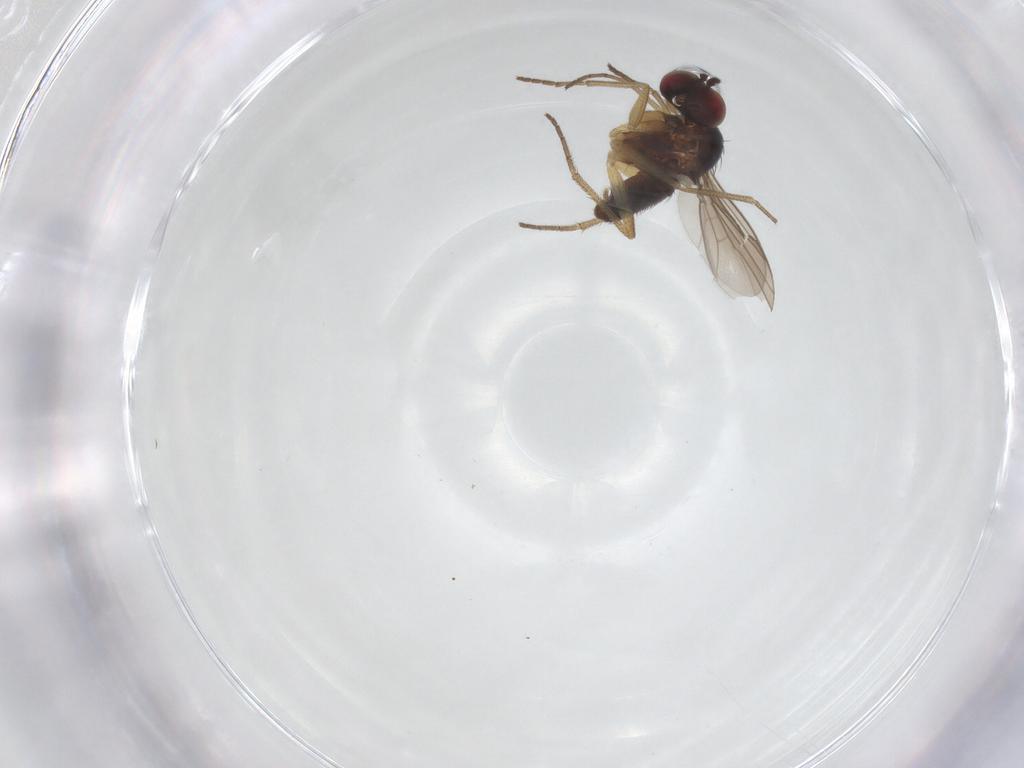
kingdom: Animalia
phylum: Arthropoda
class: Insecta
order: Diptera
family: Dolichopodidae
